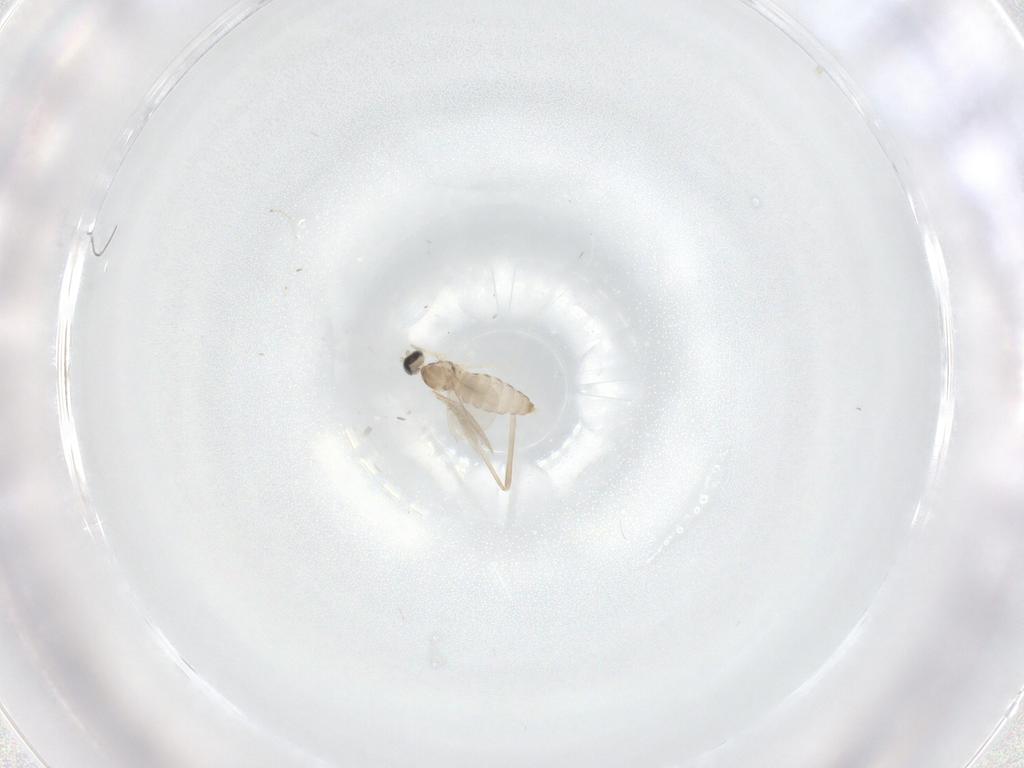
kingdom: Animalia
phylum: Arthropoda
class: Insecta
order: Diptera
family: Cecidomyiidae
